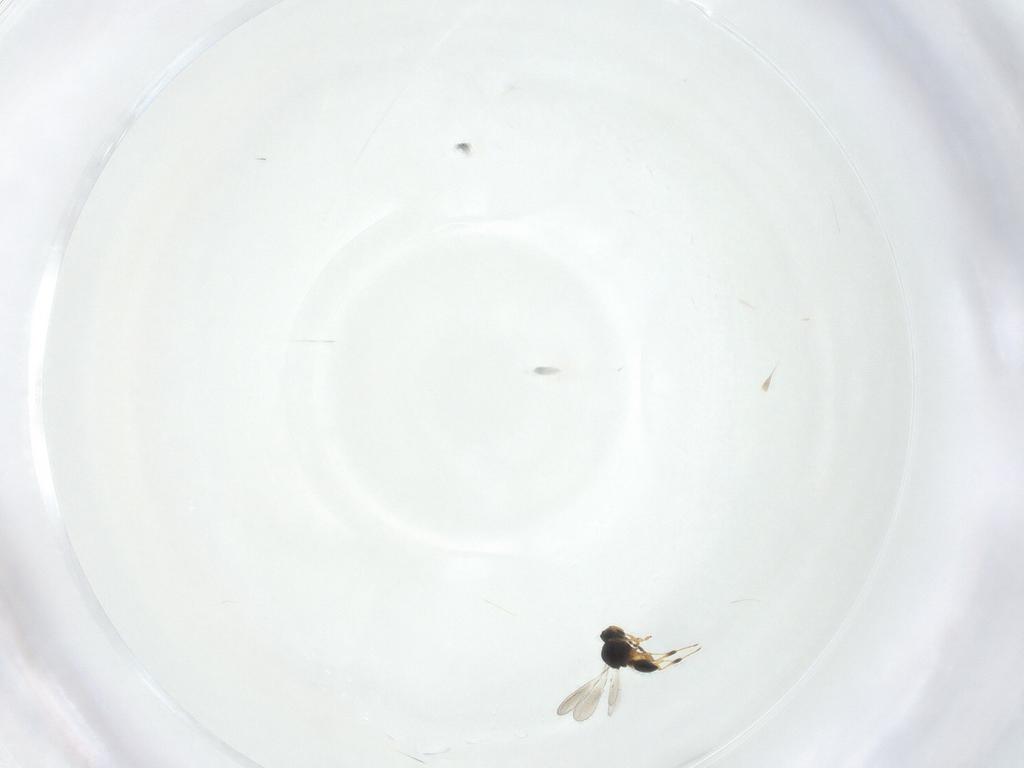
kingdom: Animalia
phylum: Arthropoda
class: Insecta
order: Hymenoptera
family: Platygastridae
